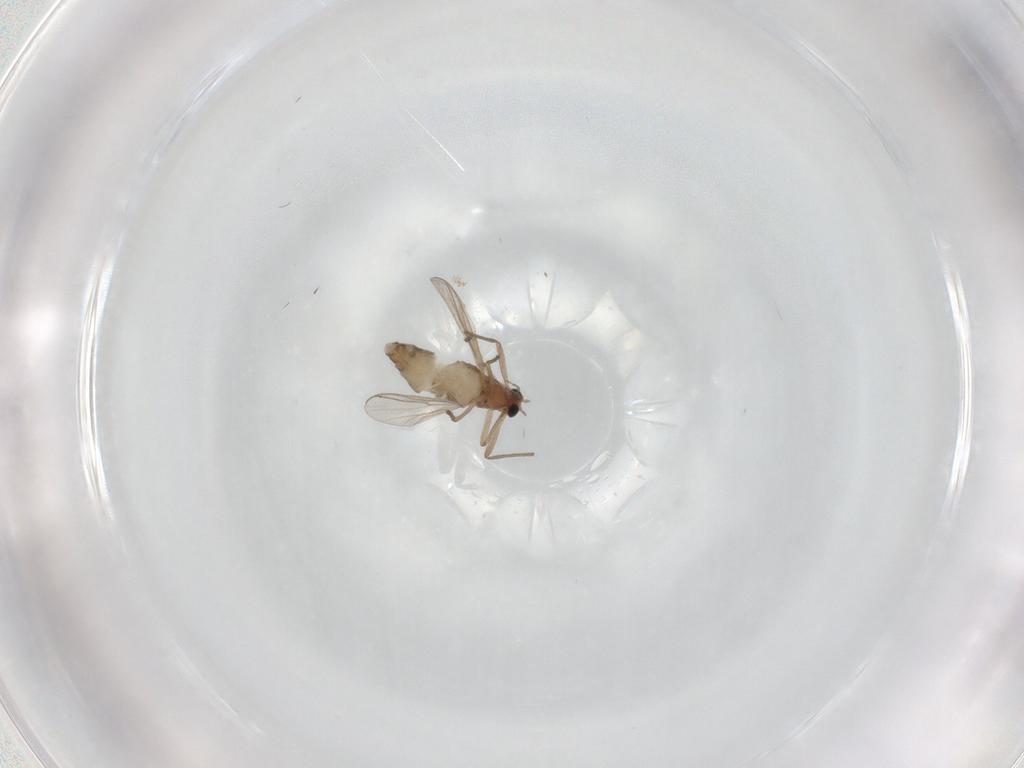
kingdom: Animalia
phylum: Arthropoda
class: Insecta
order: Diptera
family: Chironomidae
